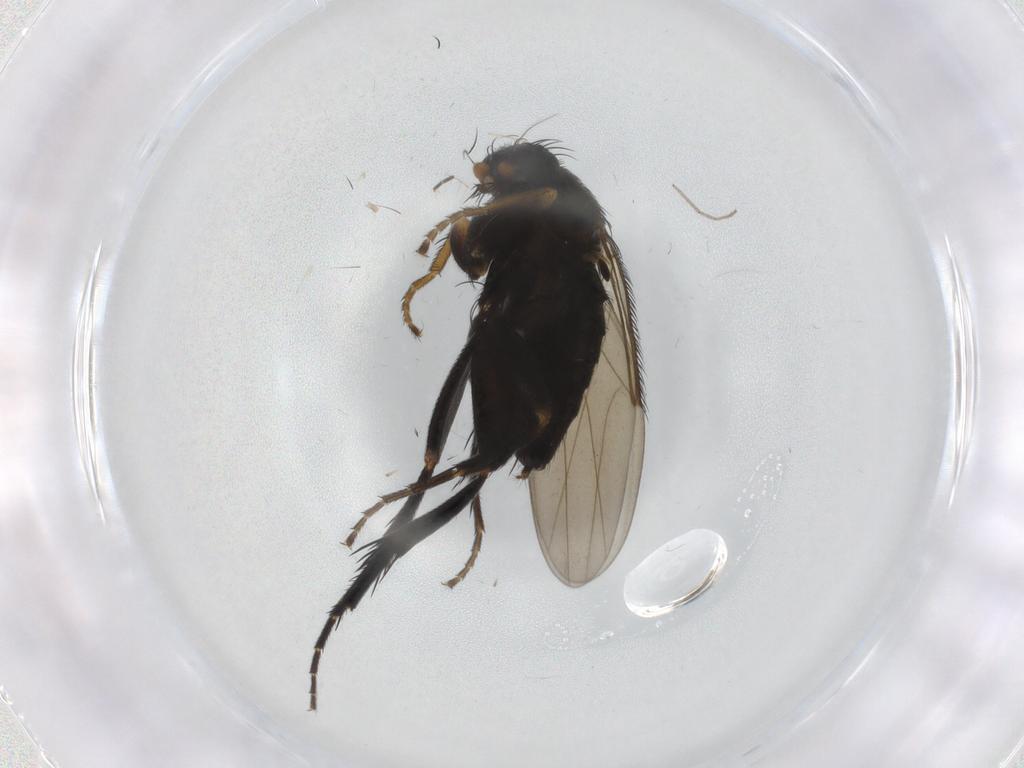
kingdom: Animalia
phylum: Arthropoda
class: Insecta
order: Diptera
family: Phoridae
